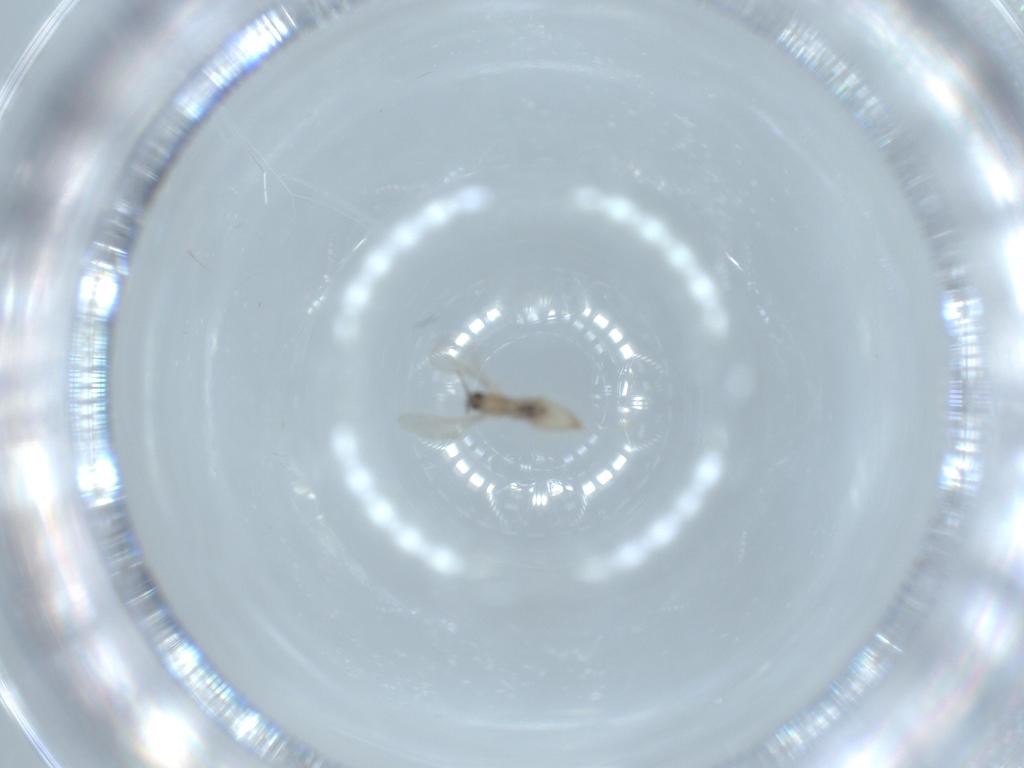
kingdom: Animalia
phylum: Arthropoda
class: Insecta
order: Diptera
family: Cecidomyiidae
